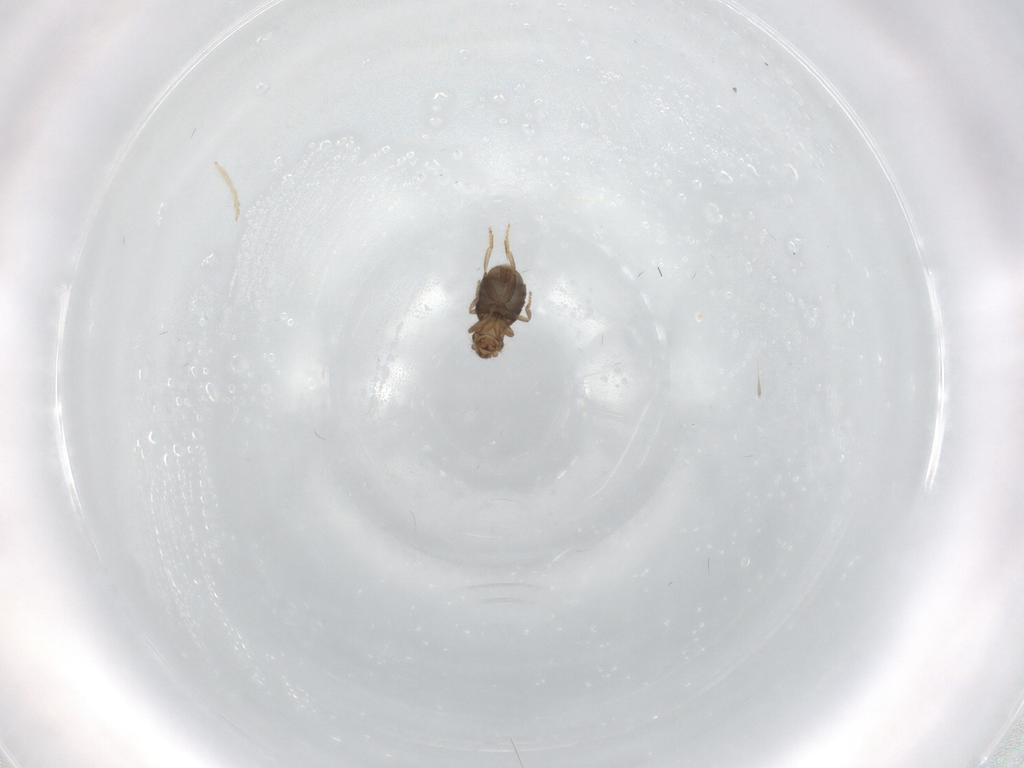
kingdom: Animalia
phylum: Arthropoda
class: Insecta
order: Diptera
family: Cecidomyiidae
